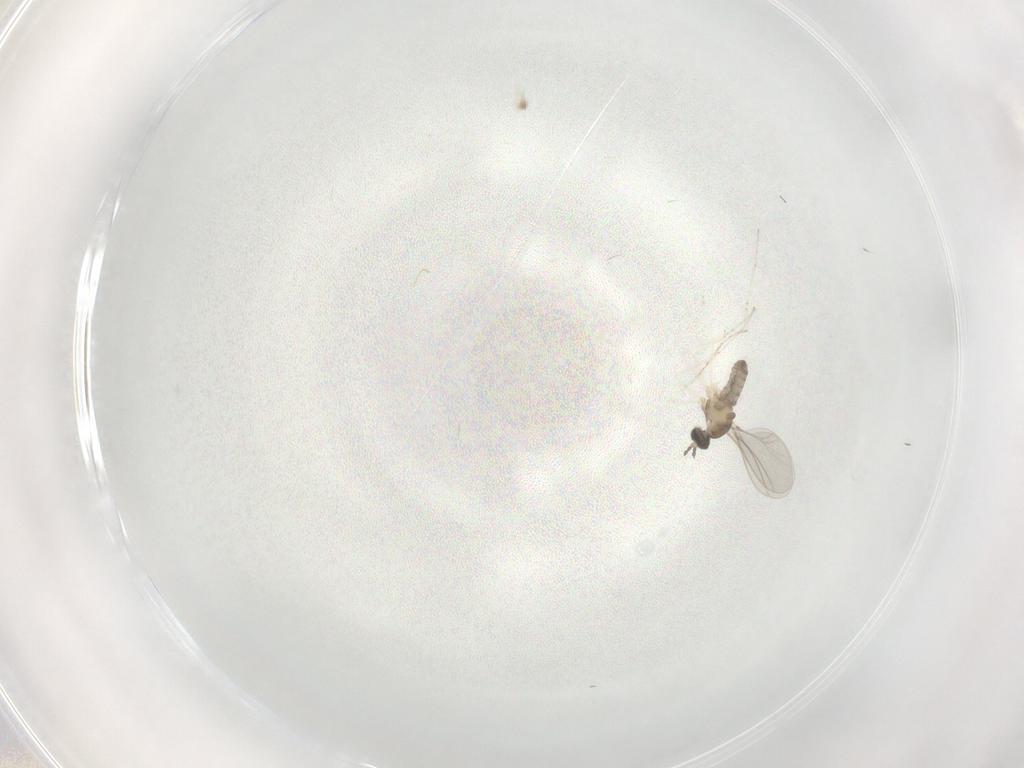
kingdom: Animalia
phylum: Arthropoda
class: Insecta
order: Diptera
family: Cecidomyiidae
